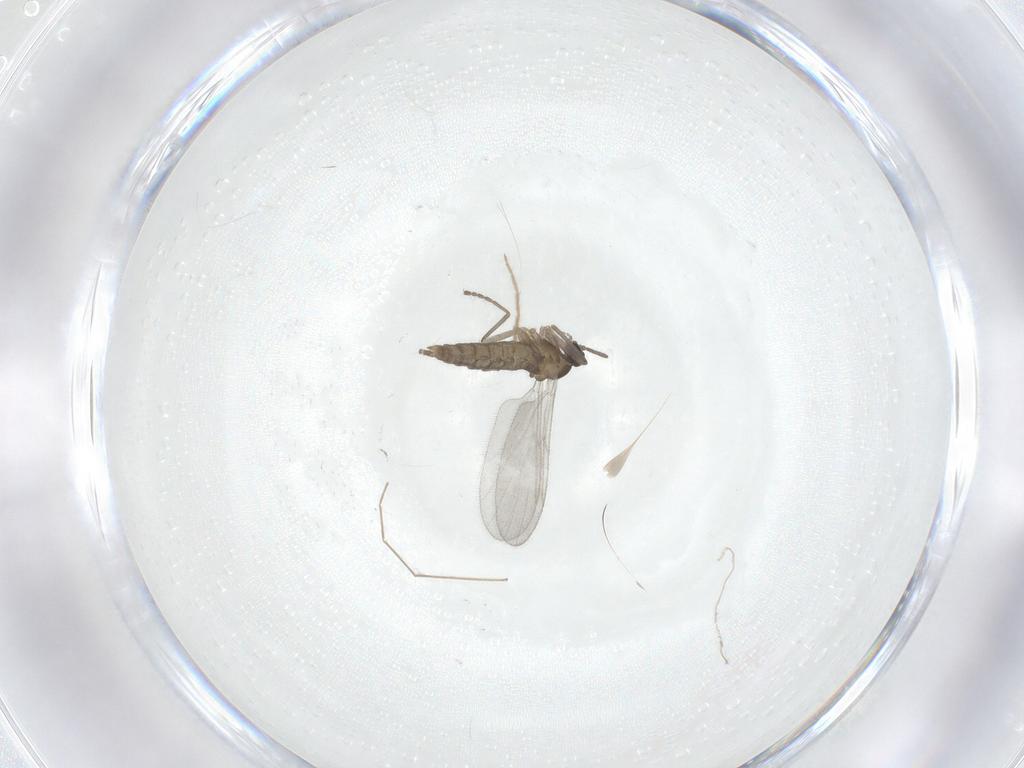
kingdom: Animalia
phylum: Arthropoda
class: Insecta
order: Diptera
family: Cecidomyiidae
